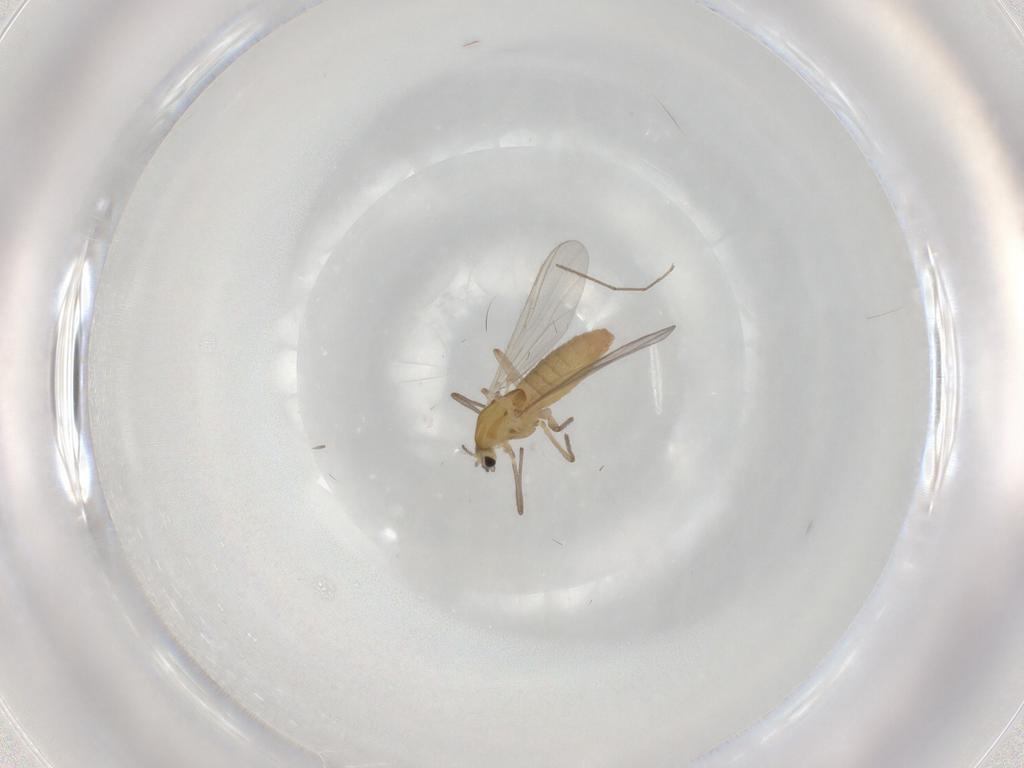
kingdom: Animalia
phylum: Arthropoda
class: Insecta
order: Diptera
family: Chironomidae
